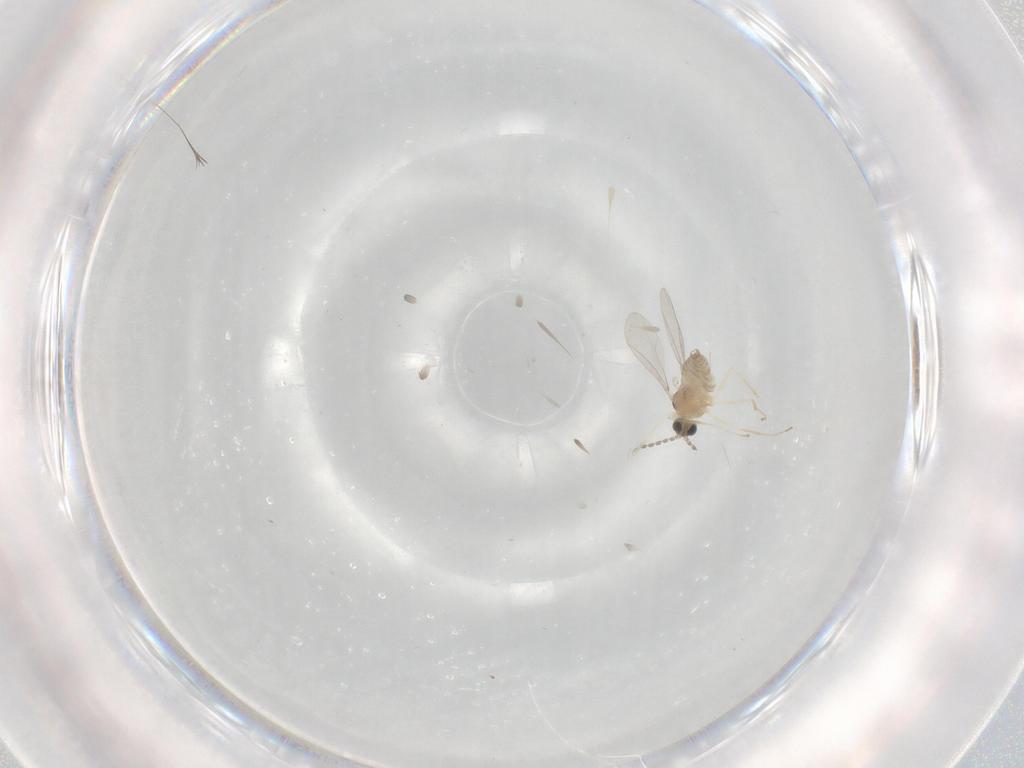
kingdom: Animalia
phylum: Arthropoda
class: Insecta
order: Diptera
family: Cecidomyiidae
